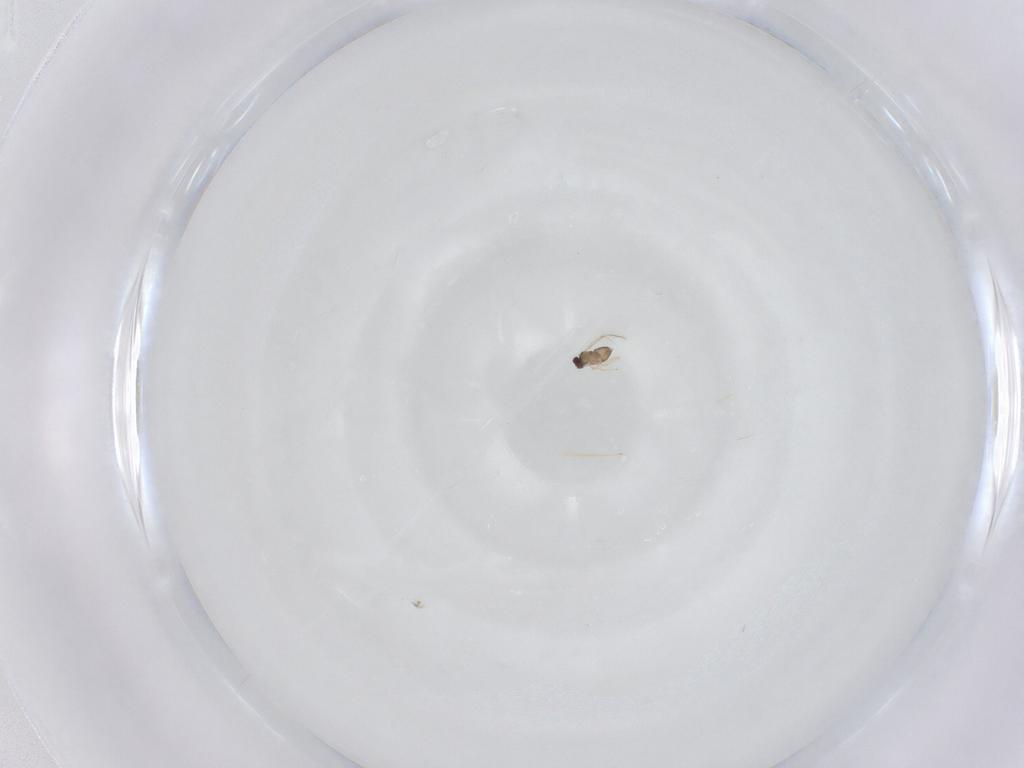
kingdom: Animalia
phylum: Arthropoda
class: Insecta
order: Hymenoptera
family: Mymaridae
